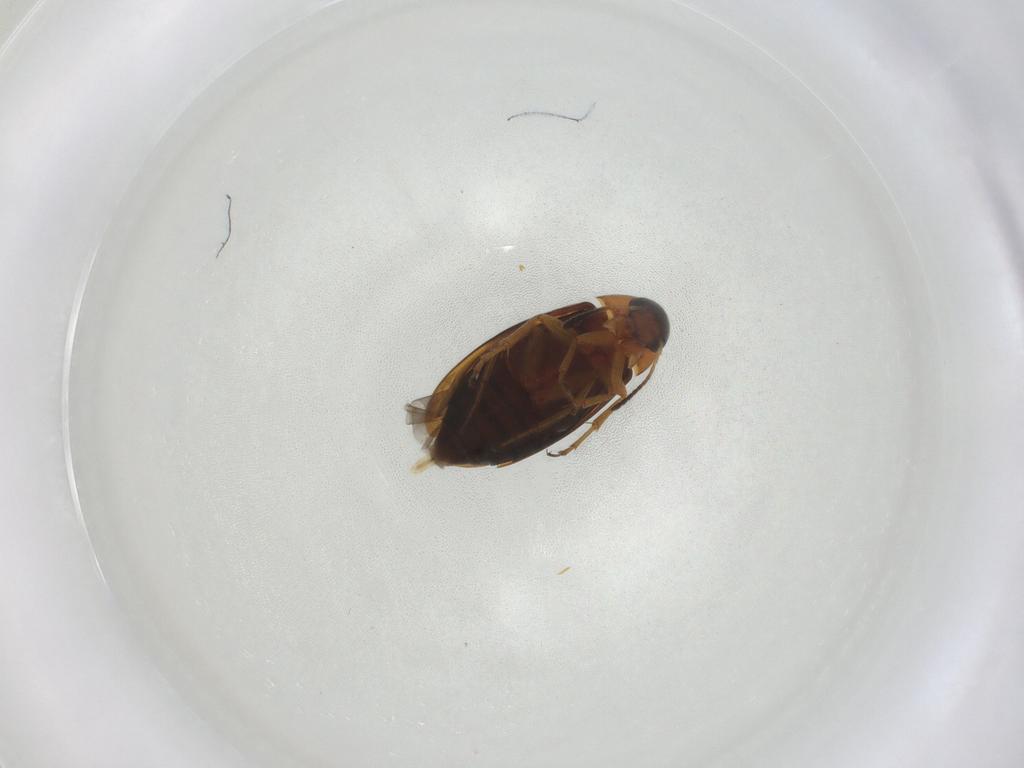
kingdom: Animalia
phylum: Arthropoda
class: Insecta
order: Coleoptera
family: Scraptiidae
